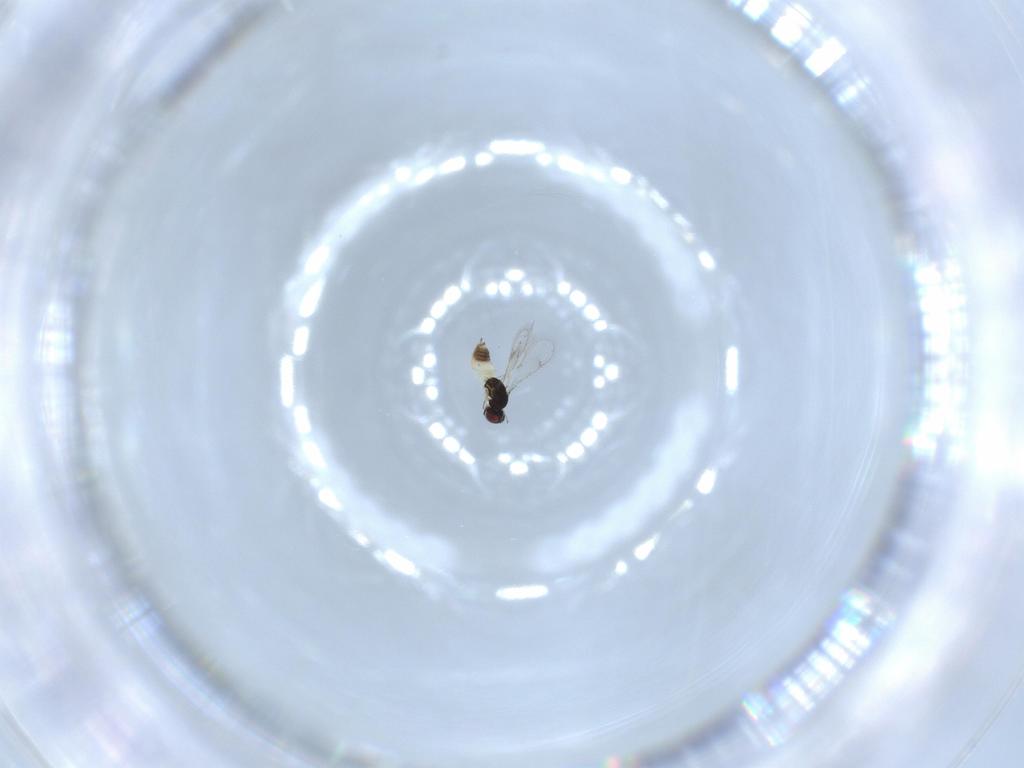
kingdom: Animalia
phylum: Arthropoda
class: Insecta
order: Hymenoptera
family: Eulophidae
